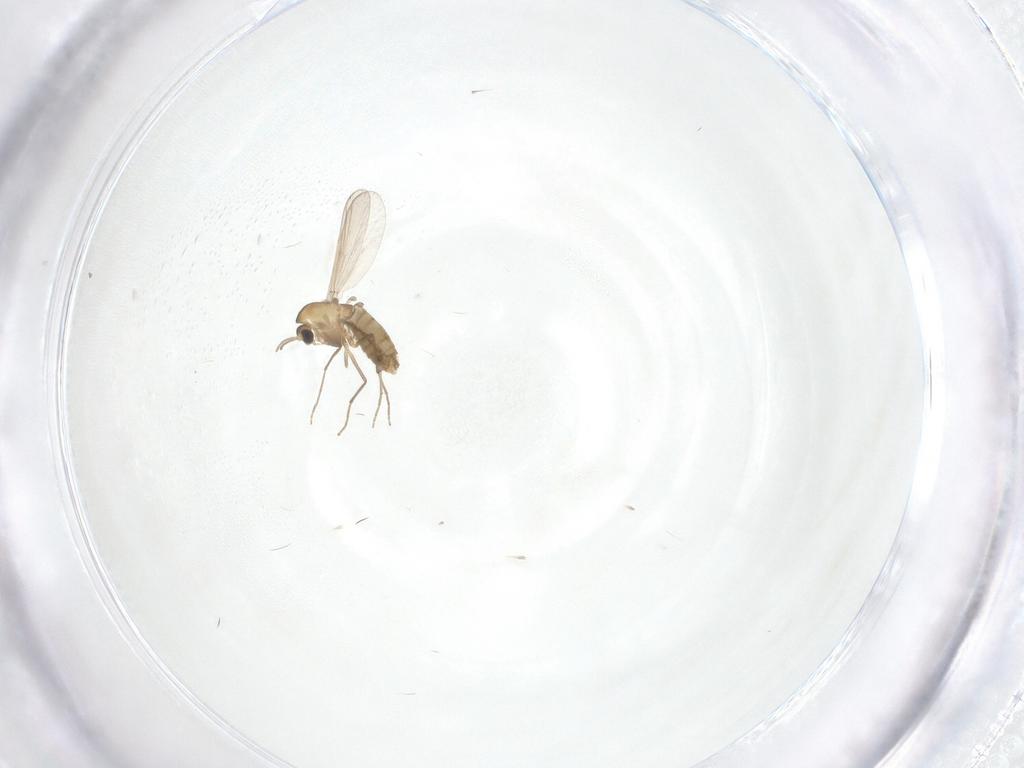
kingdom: Animalia
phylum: Arthropoda
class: Insecta
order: Diptera
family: Chironomidae
